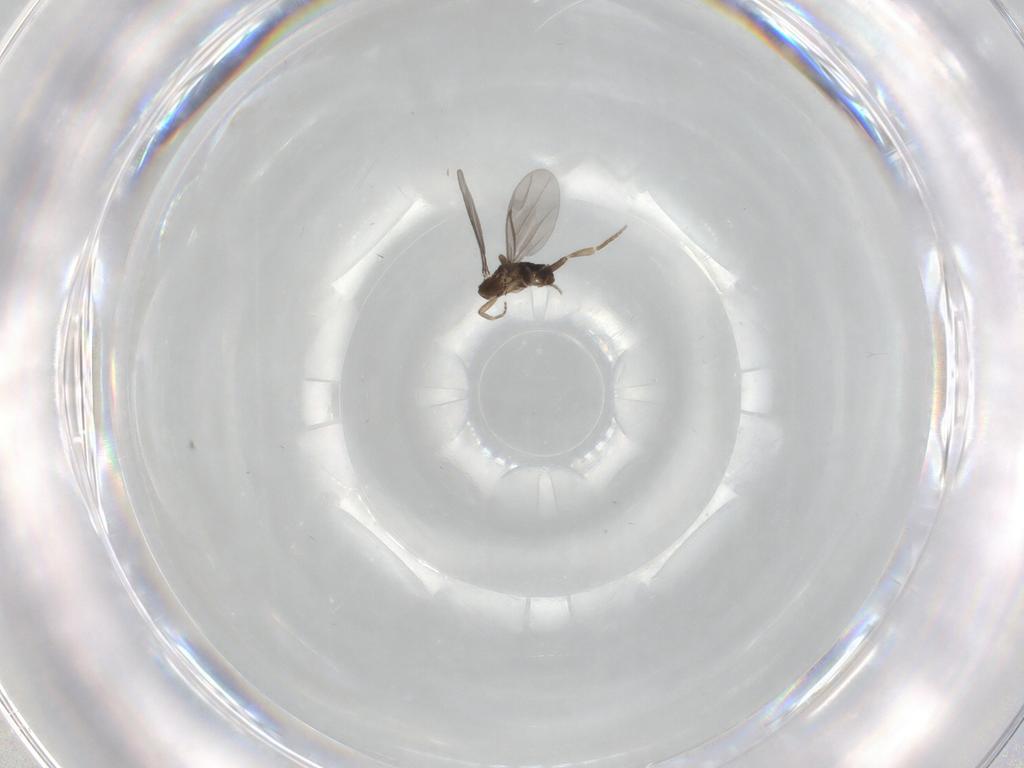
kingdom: Animalia
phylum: Arthropoda
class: Insecta
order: Diptera
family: Phoridae
